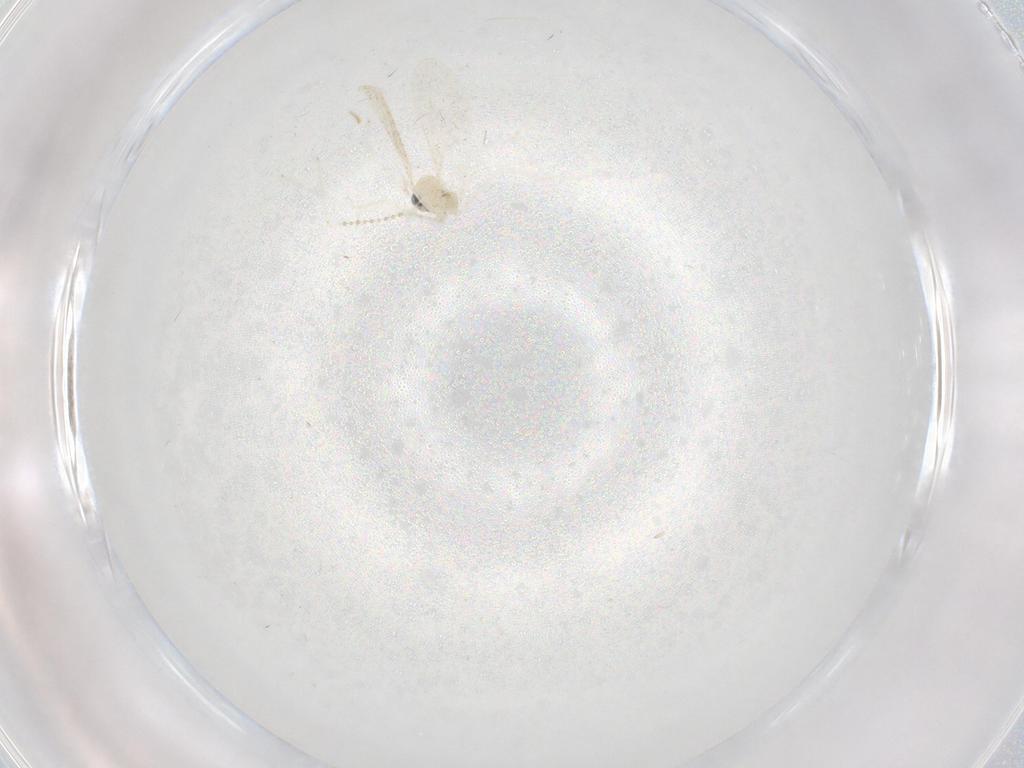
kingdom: Animalia
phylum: Arthropoda
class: Insecta
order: Diptera
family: Cecidomyiidae
